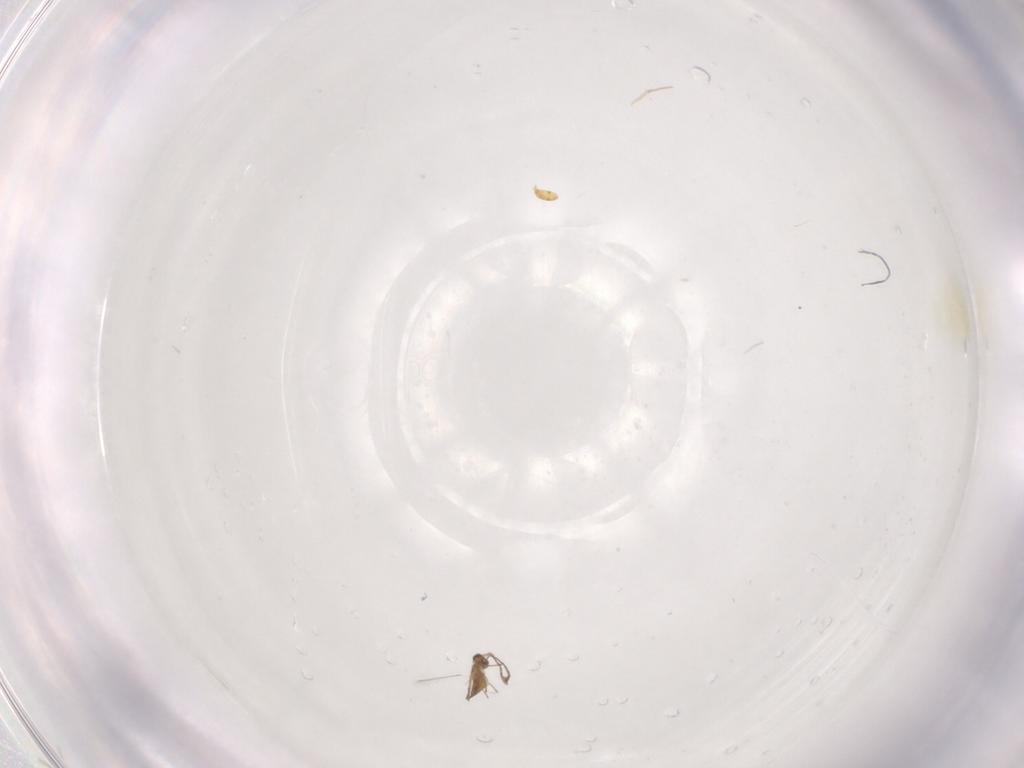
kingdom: Animalia
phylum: Arthropoda
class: Insecta
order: Hymenoptera
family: Mymaridae
